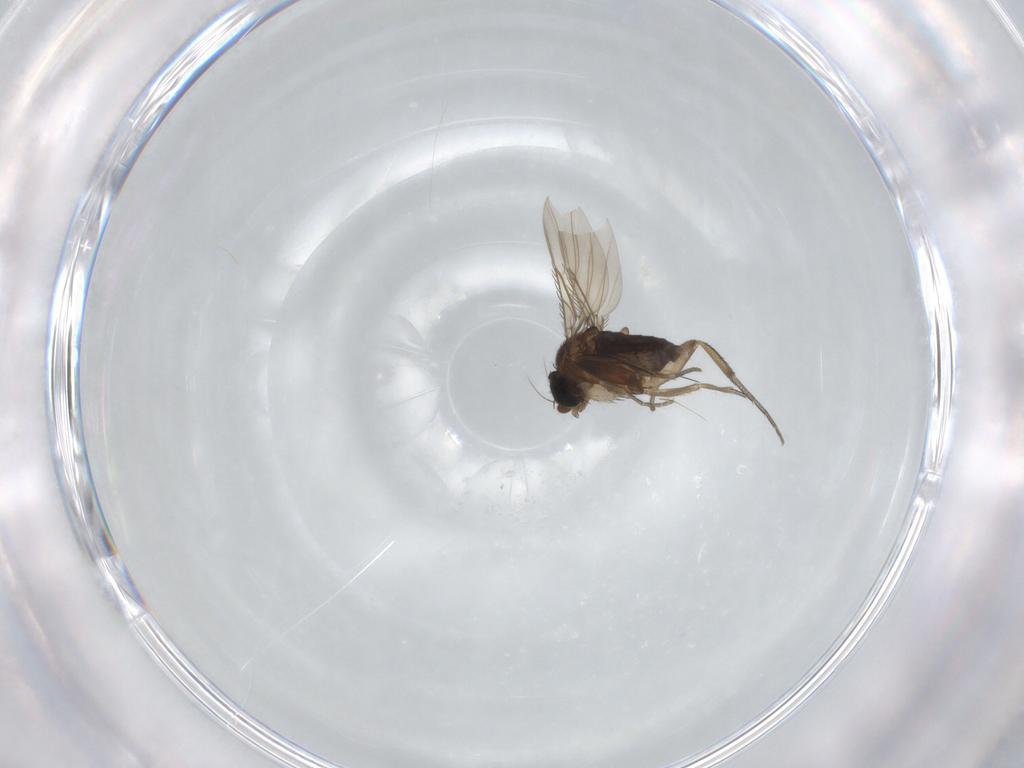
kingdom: Animalia
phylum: Arthropoda
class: Insecta
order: Diptera
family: Phoridae
